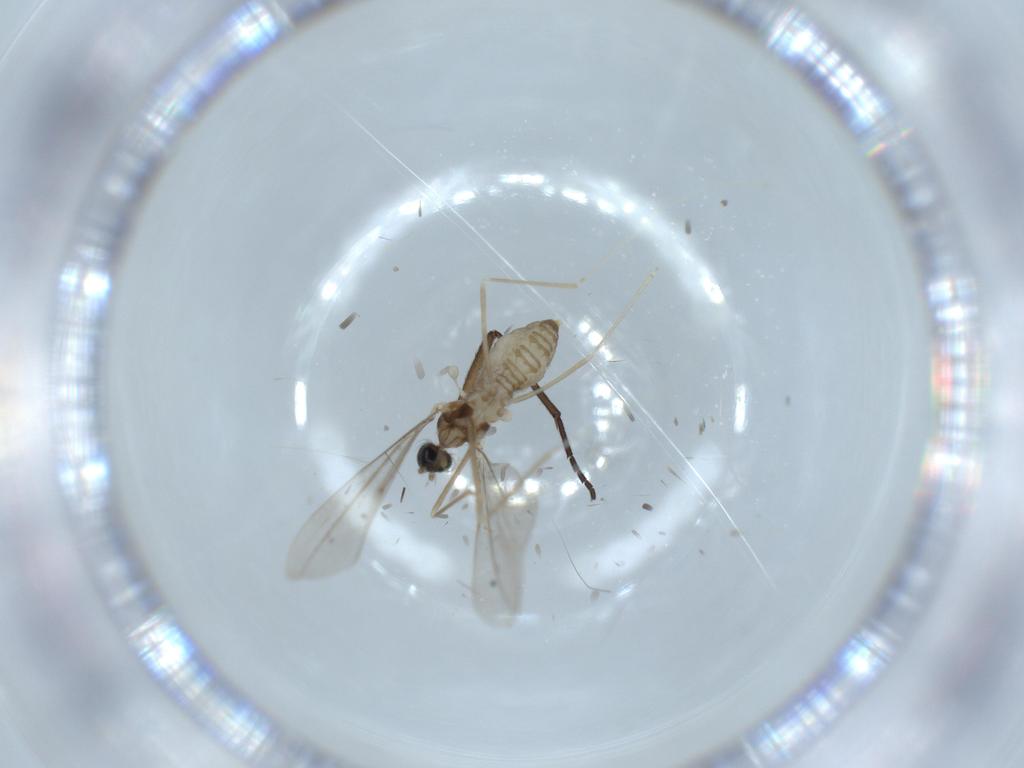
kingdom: Animalia
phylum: Arthropoda
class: Insecta
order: Diptera
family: Cecidomyiidae
